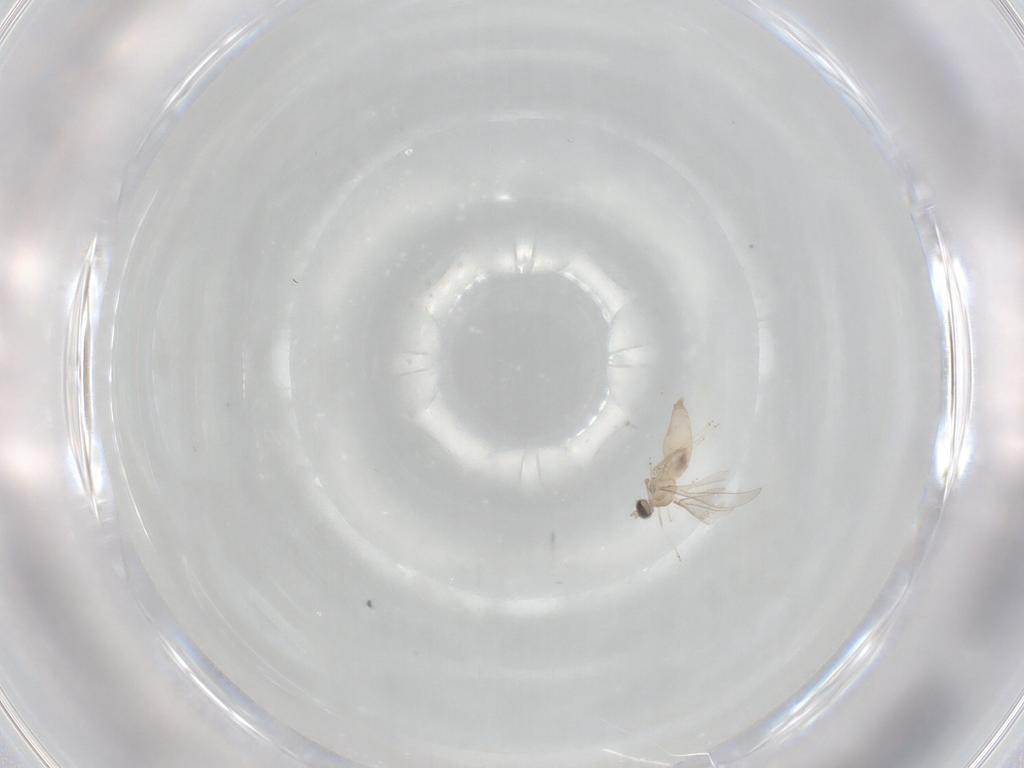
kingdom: Animalia
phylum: Arthropoda
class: Insecta
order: Diptera
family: Cecidomyiidae
